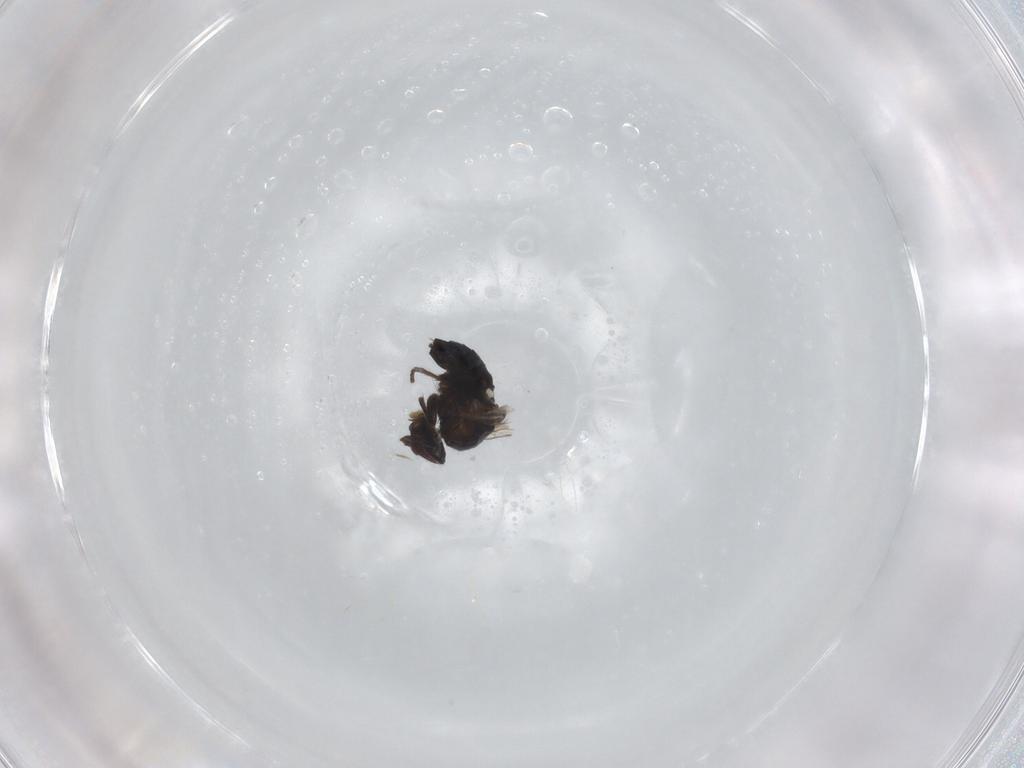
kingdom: Animalia
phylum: Arthropoda
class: Insecta
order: Diptera
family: Agromyzidae
